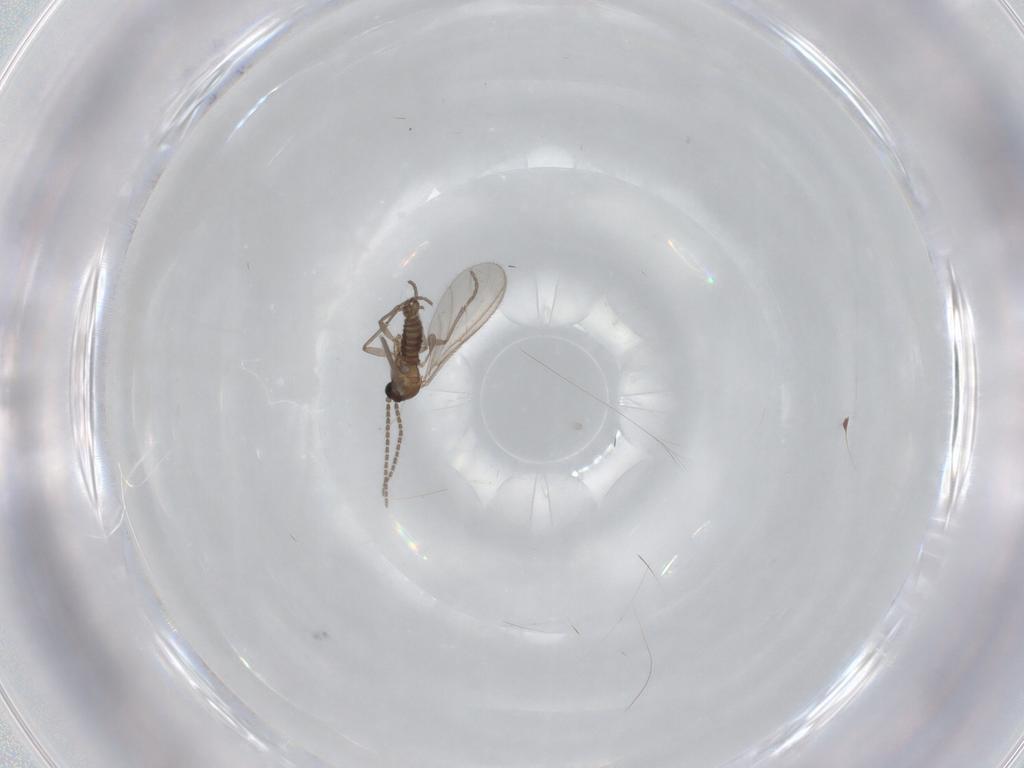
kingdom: Animalia
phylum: Arthropoda
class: Insecta
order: Diptera
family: Sciaridae
